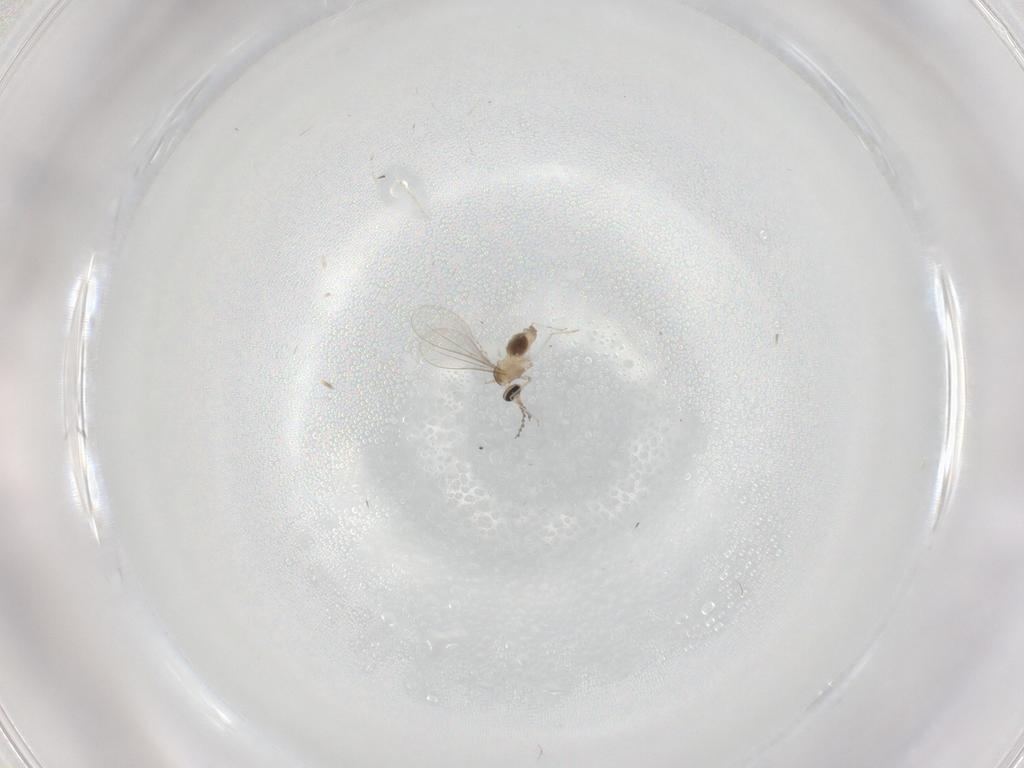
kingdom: Animalia
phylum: Arthropoda
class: Insecta
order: Diptera
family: Cecidomyiidae
